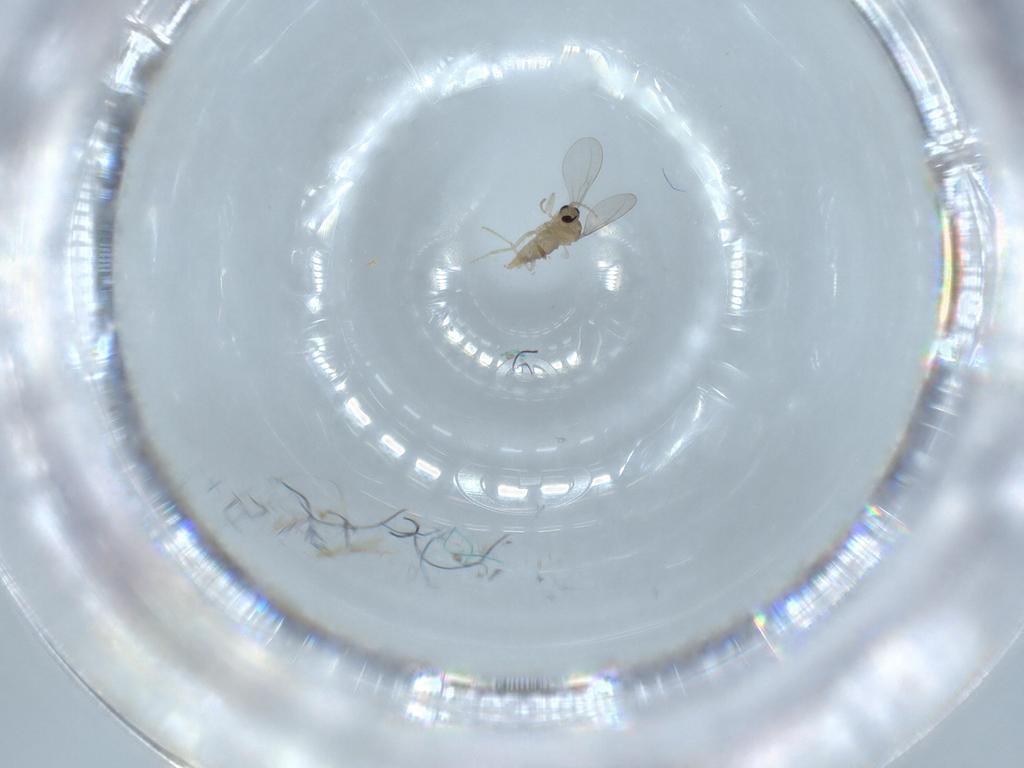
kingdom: Animalia
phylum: Arthropoda
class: Insecta
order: Diptera
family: Cecidomyiidae
